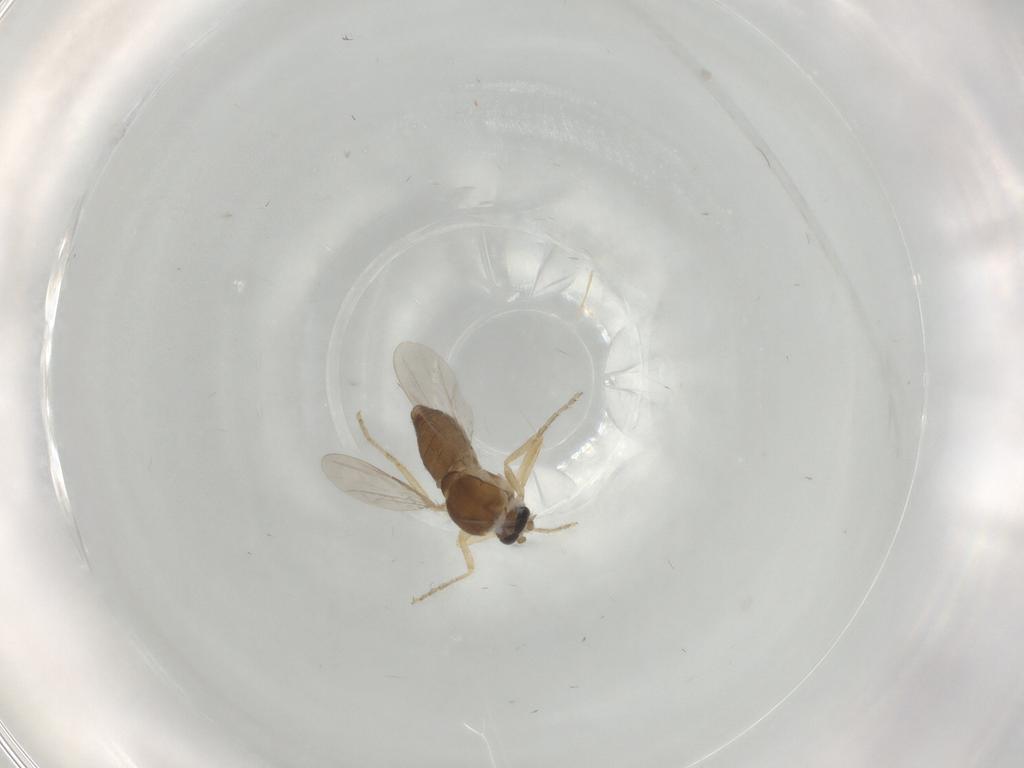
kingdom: Animalia
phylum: Arthropoda
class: Insecta
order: Diptera
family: Ceratopogonidae
